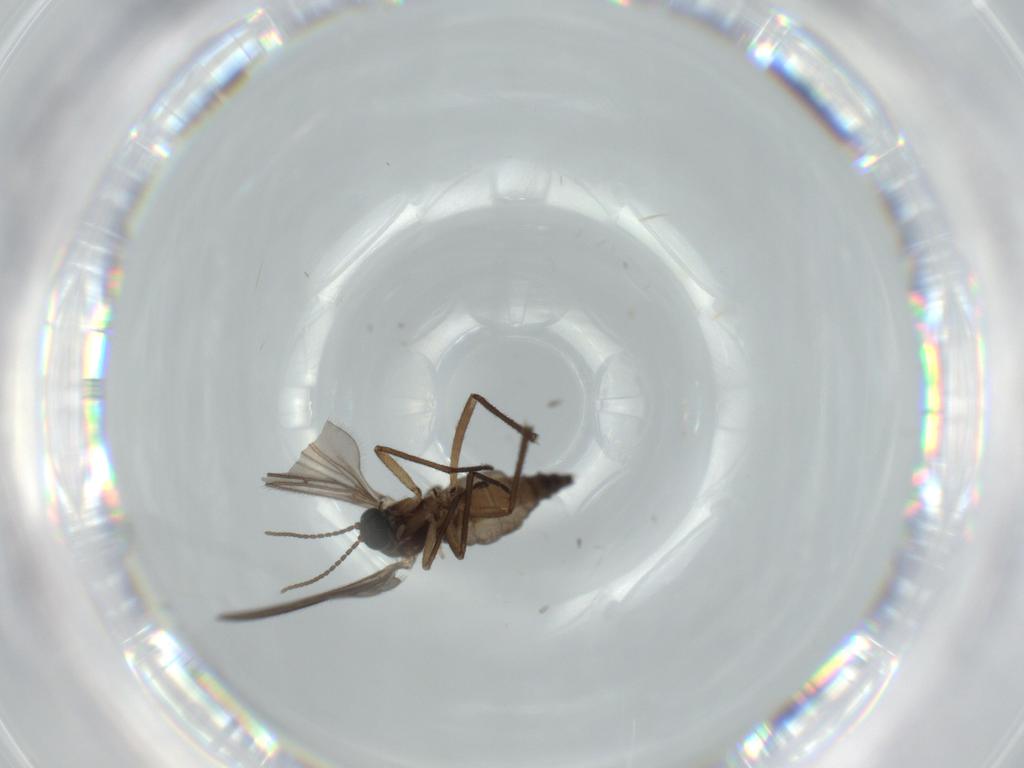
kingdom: Animalia
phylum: Arthropoda
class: Insecta
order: Diptera
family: Sciaridae
